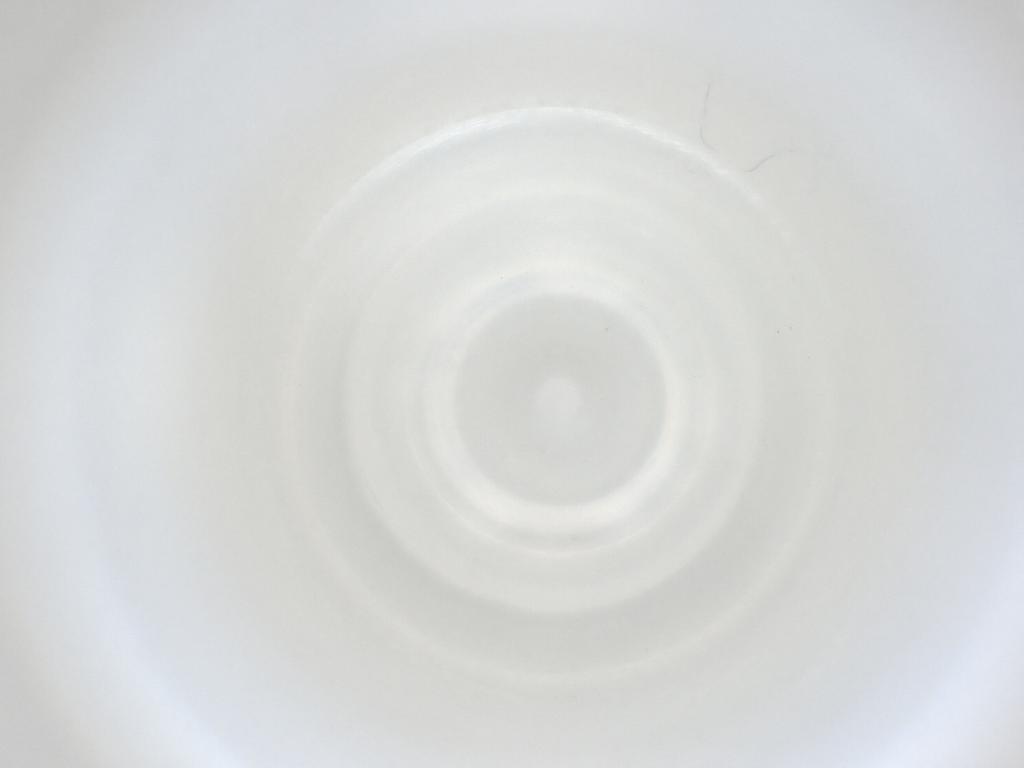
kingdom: Animalia
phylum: Arthropoda
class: Insecta
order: Diptera
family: Cecidomyiidae
